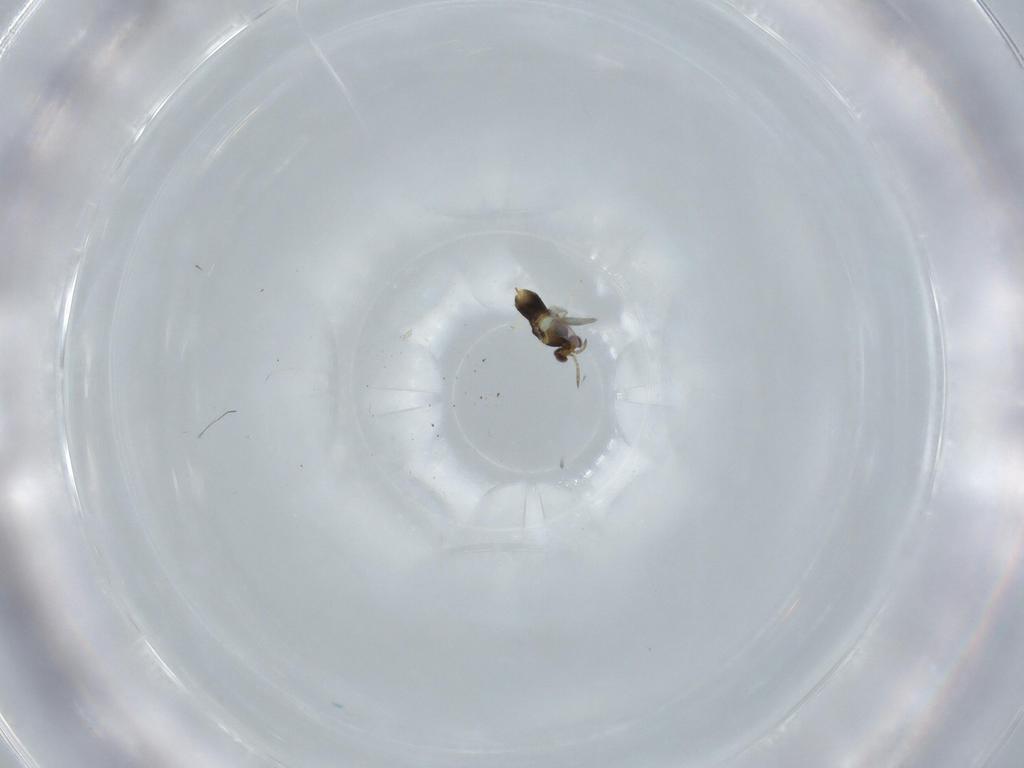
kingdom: Animalia
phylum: Arthropoda
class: Insecta
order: Hymenoptera
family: Aphelinidae
